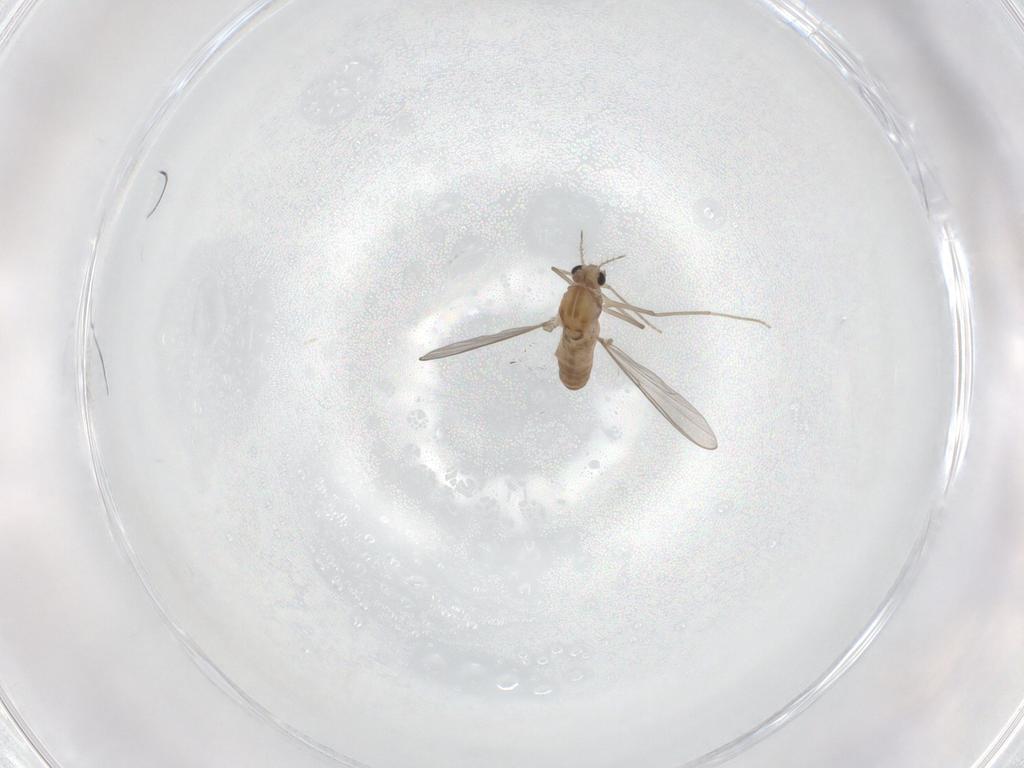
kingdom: Animalia
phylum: Arthropoda
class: Insecta
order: Diptera
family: Chironomidae
